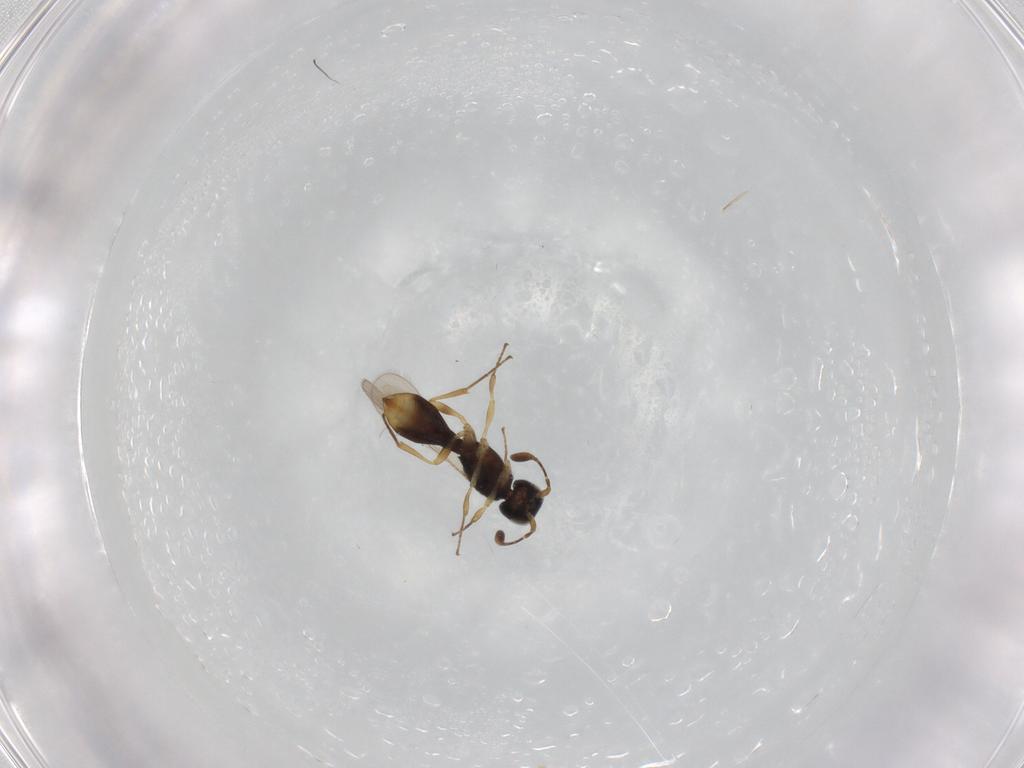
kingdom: Animalia
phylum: Arthropoda
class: Insecta
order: Hymenoptera
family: Scelionidae
